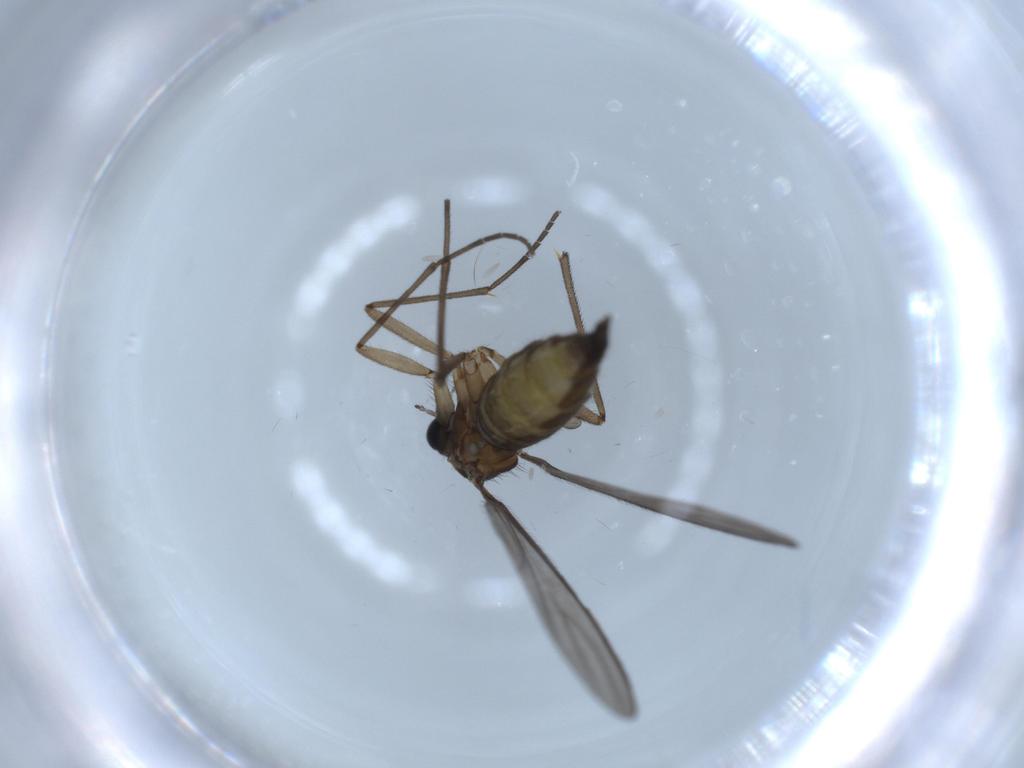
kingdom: Animalia
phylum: Arthropoda
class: Insecta
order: Diptera
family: Sciaridae
